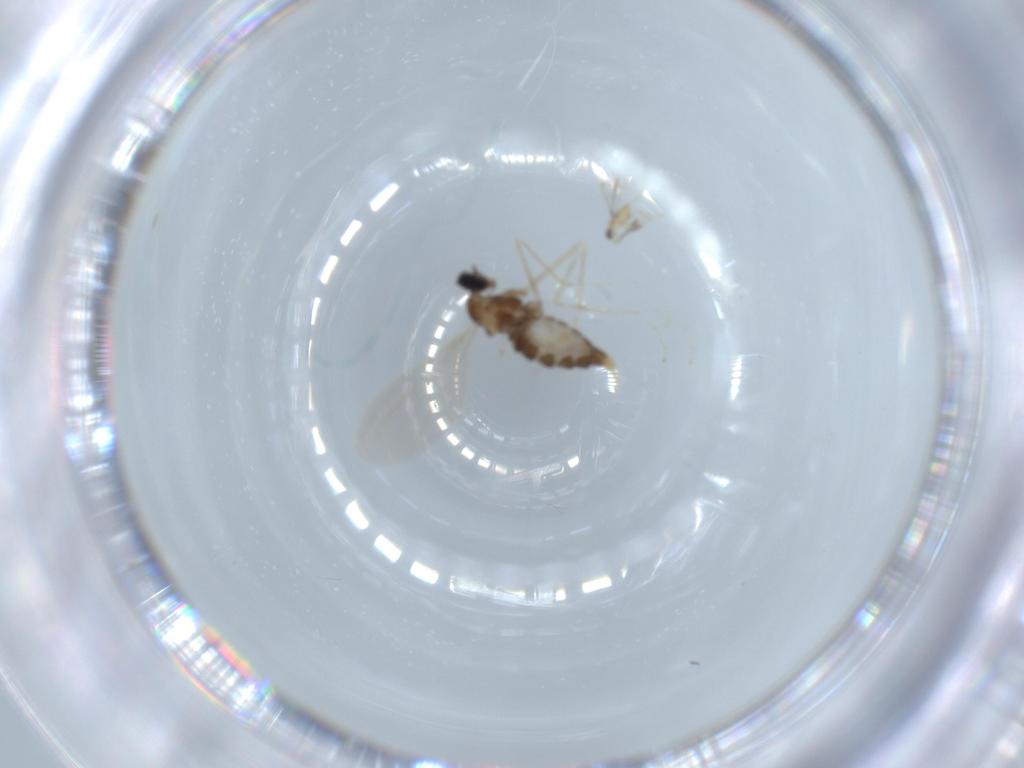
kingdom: Animalia
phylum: Arthropoda
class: Insecta
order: Diptera
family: Cecidomyiidae
